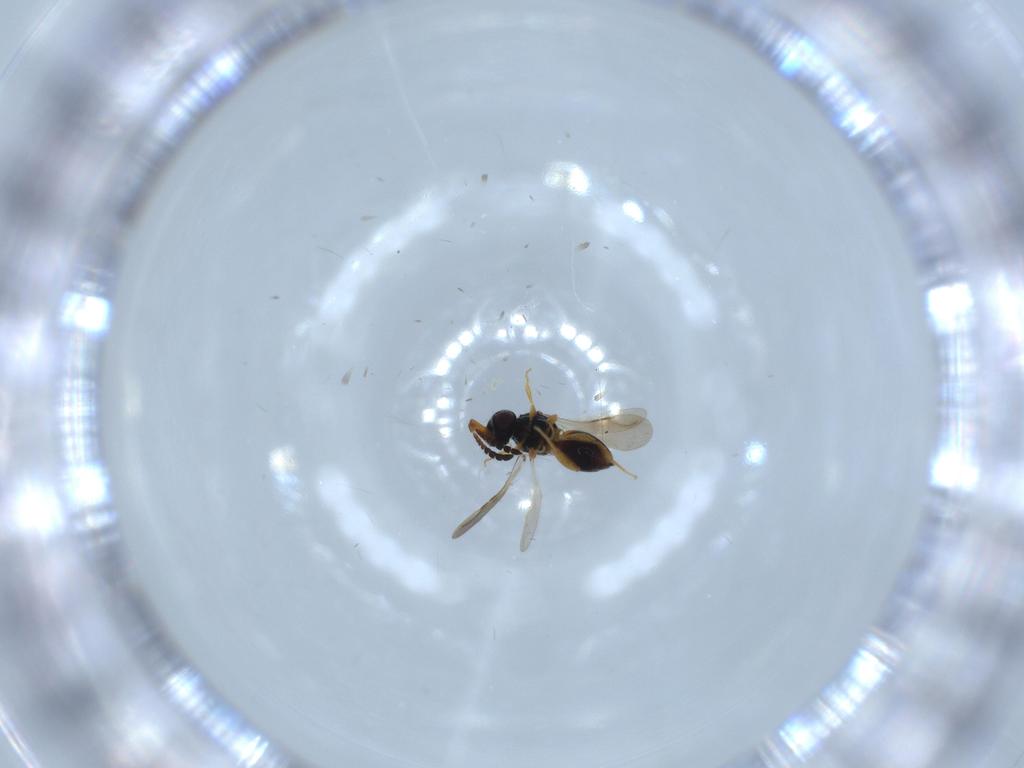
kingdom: Animalia
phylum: Arthropoda
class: Insecta
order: Hymenoptera
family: Scelionidae
